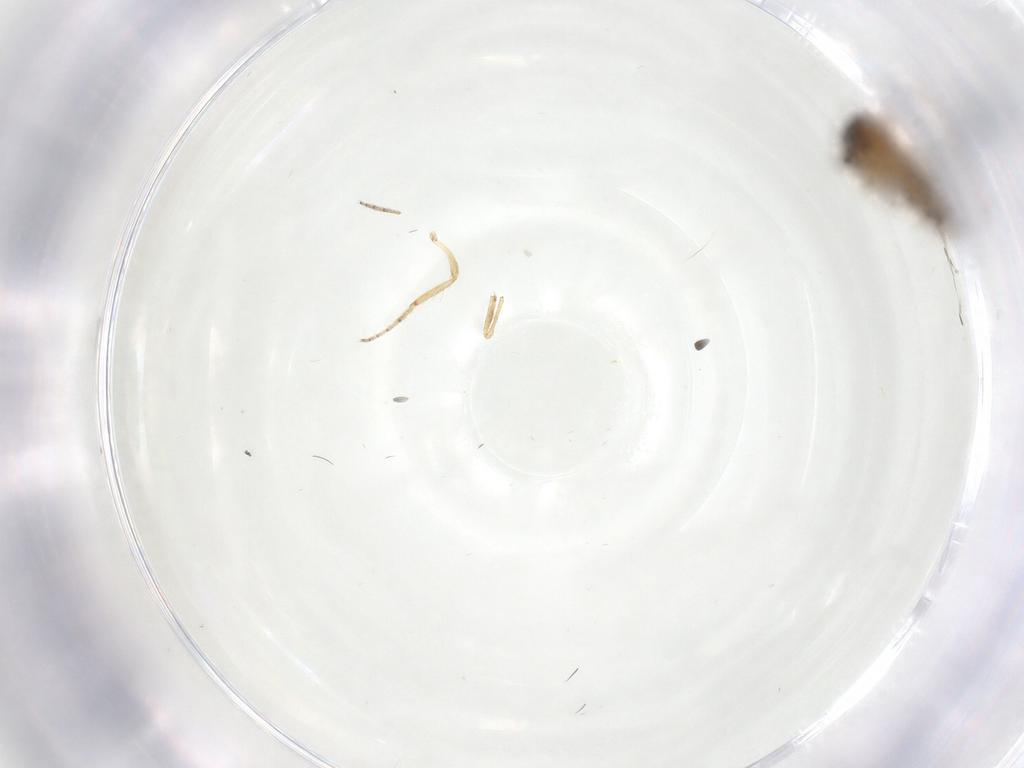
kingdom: Animalia
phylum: Arthropoda
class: Insecta
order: Diptera
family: Ceratopogonidae
